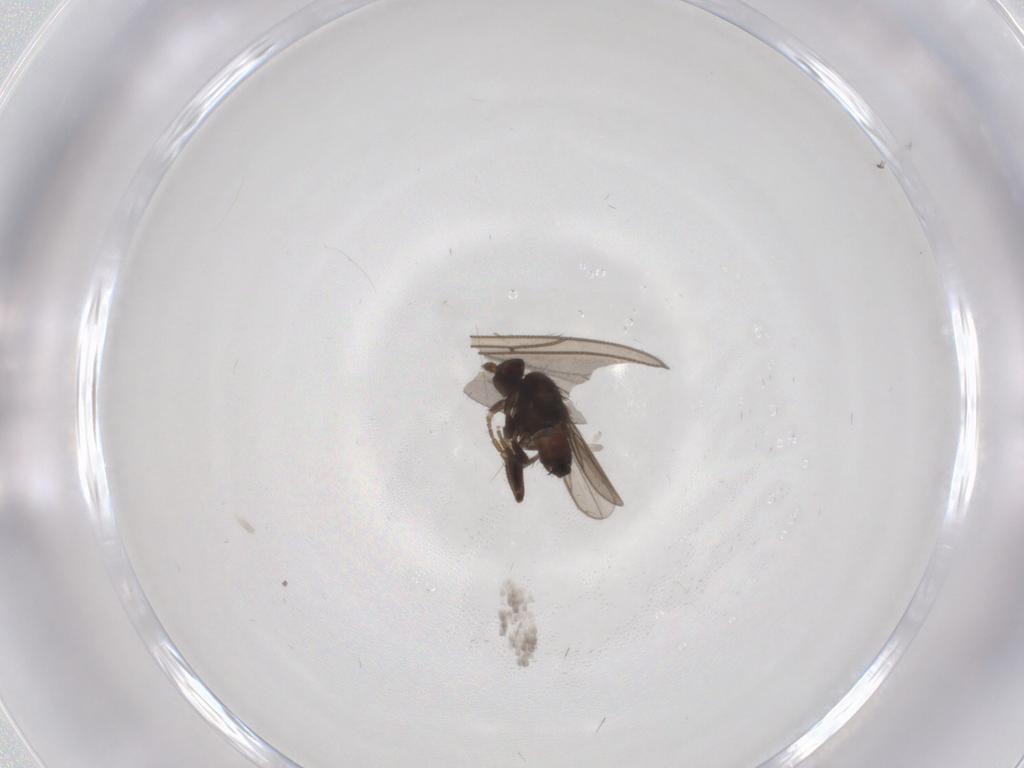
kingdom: Animalia
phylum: Arthropoda
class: Insecta
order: Diptera
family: Sphaeroceridae
